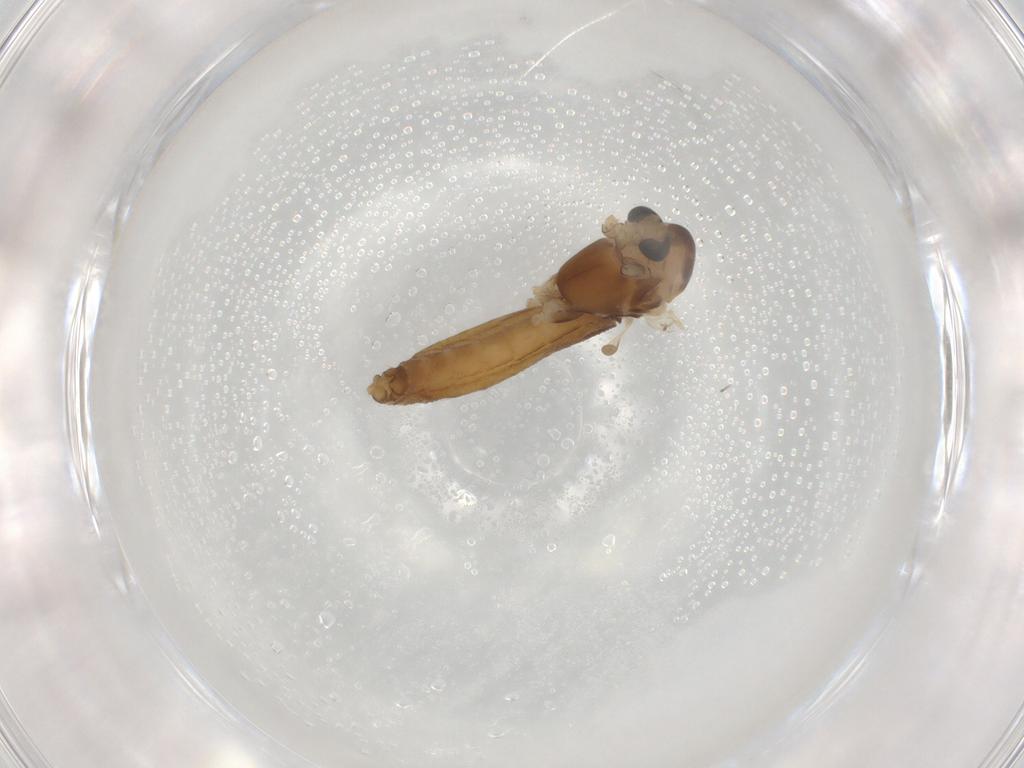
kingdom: Animalia
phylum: Arthropoda
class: Insecta
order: Diptera
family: Chironomidae
